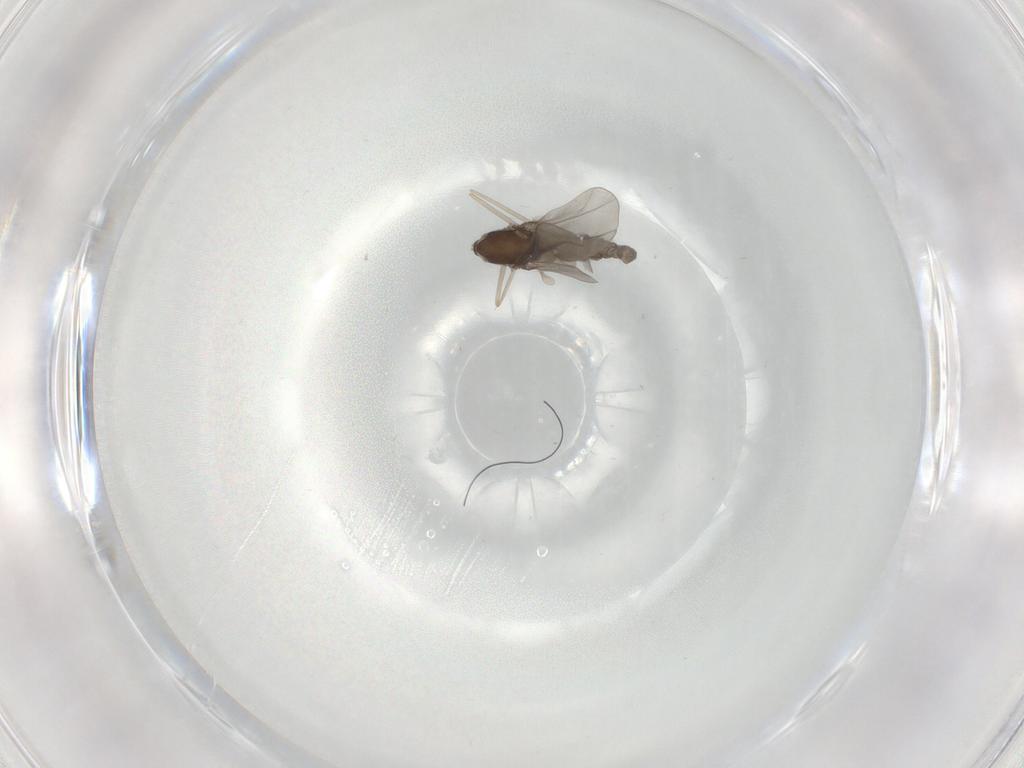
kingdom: Animalia
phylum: Arthropoda
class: Insecta
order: Diptera
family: Cecidomyiidae
